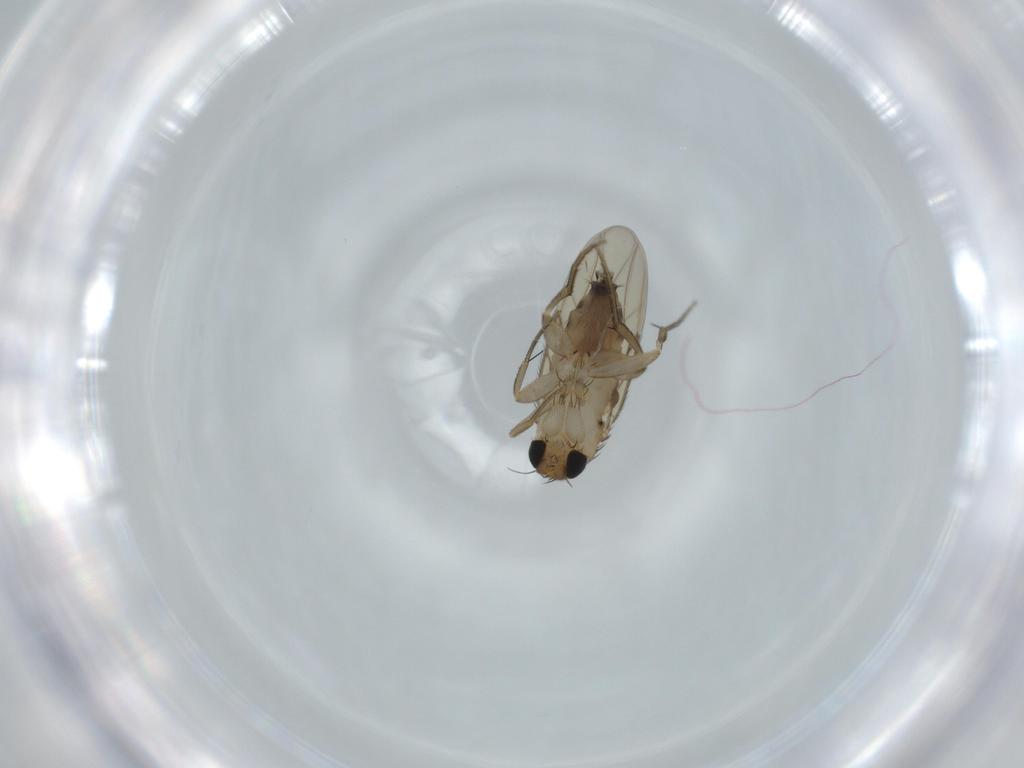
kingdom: Animalia
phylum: Arthropoda
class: Insecta
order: Diptera
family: Phoridae
